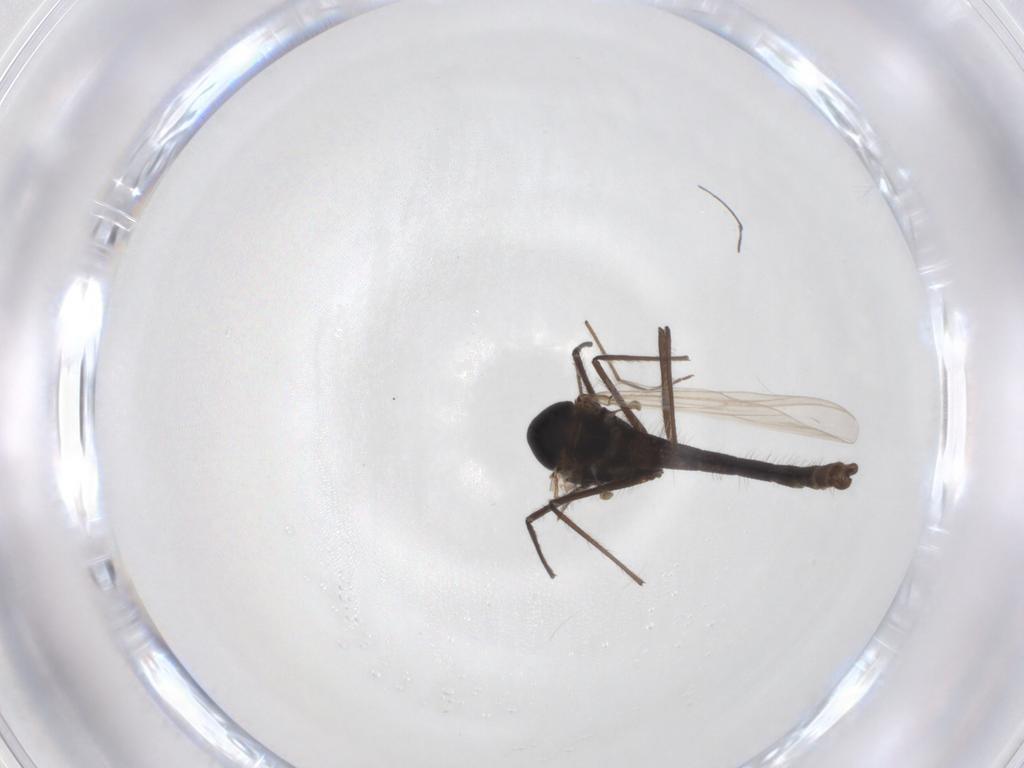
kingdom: Animalia
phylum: Arthropoda
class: Insecta
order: Diptera
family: Chironomidae
